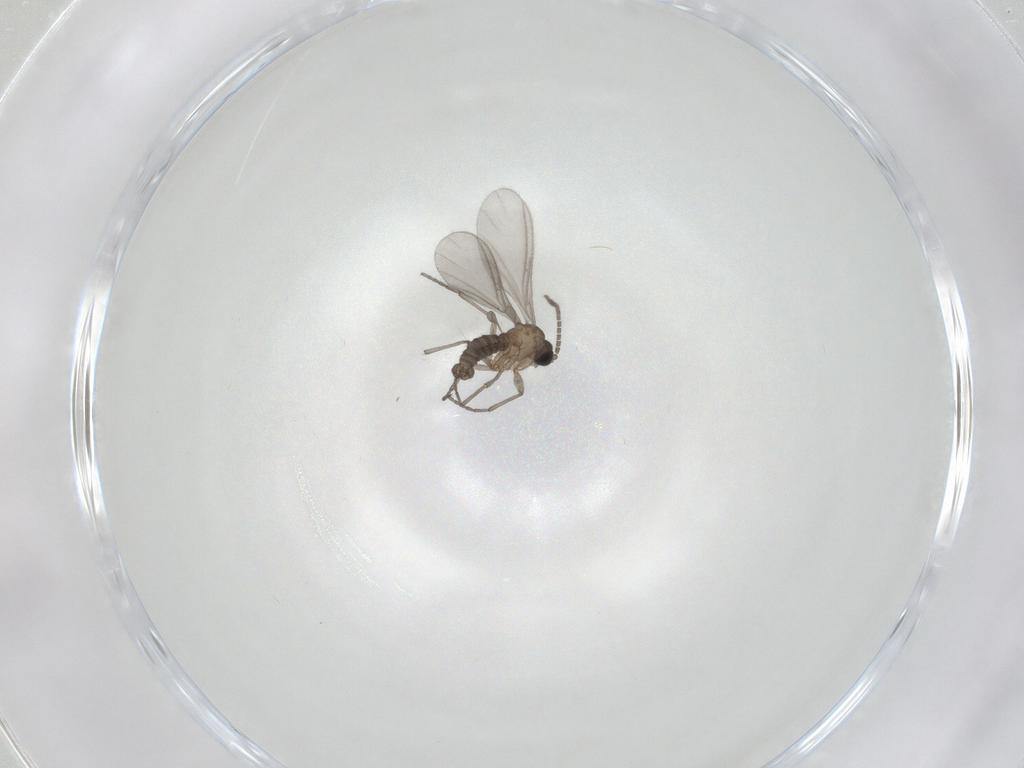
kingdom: Animalia
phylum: Arthropoda
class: Insecta
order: Diptera
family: Sciaridae
